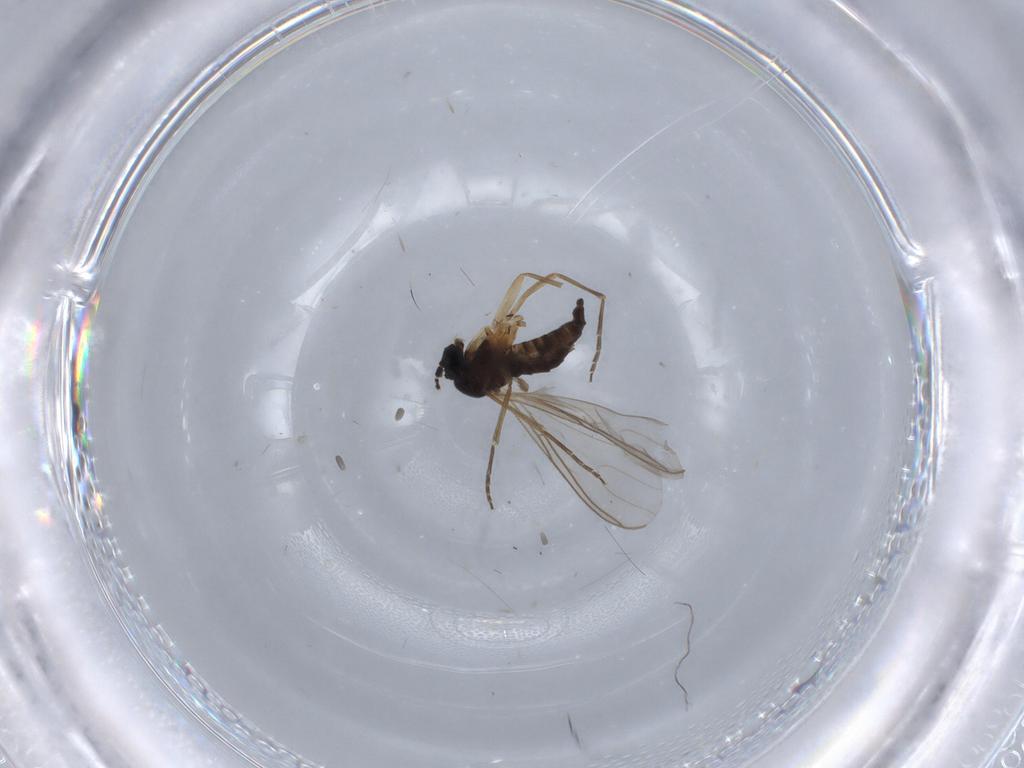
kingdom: Animalia
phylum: Arthropoda
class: Insecta
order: Diptera
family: Sciaridae
